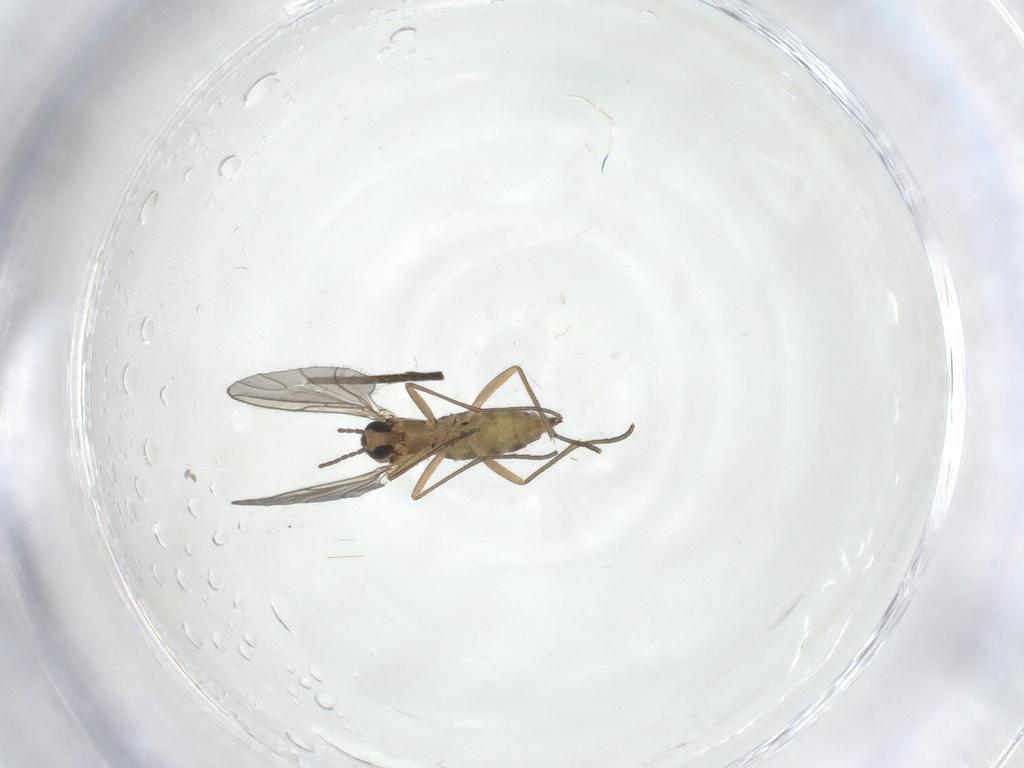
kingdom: Animalia
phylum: Arthropoda
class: Insecta
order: Diptera
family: Sciaridae
